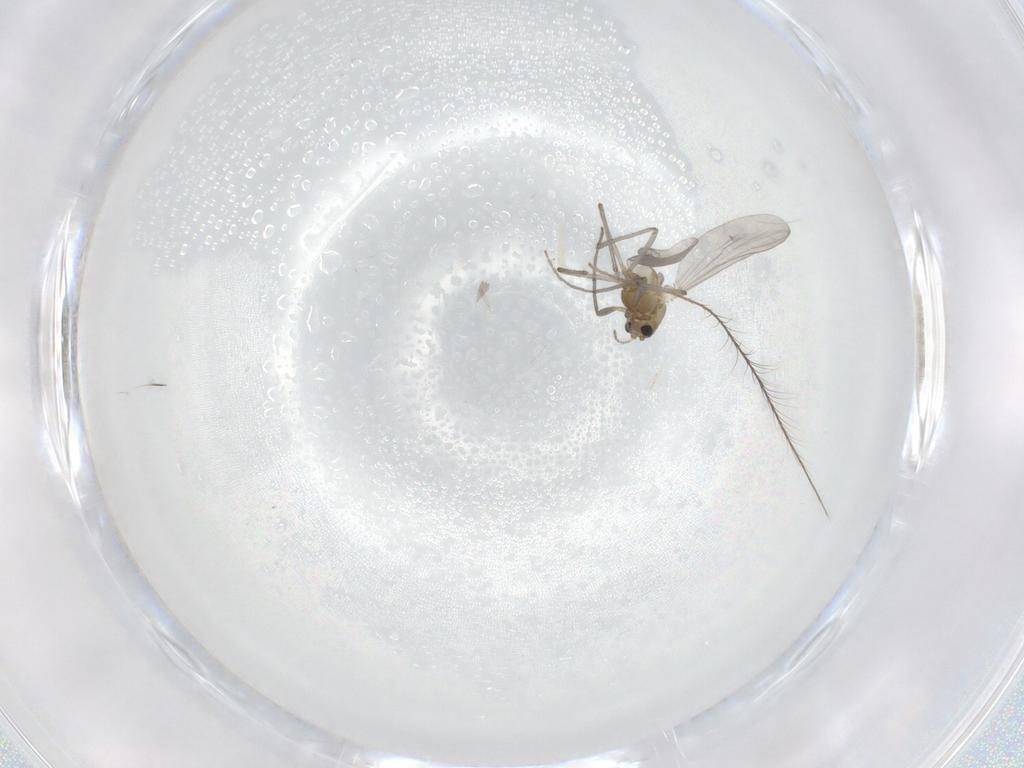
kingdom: Animalia
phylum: Arthropoda
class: Insecta
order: Diptera
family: Chironomidae
